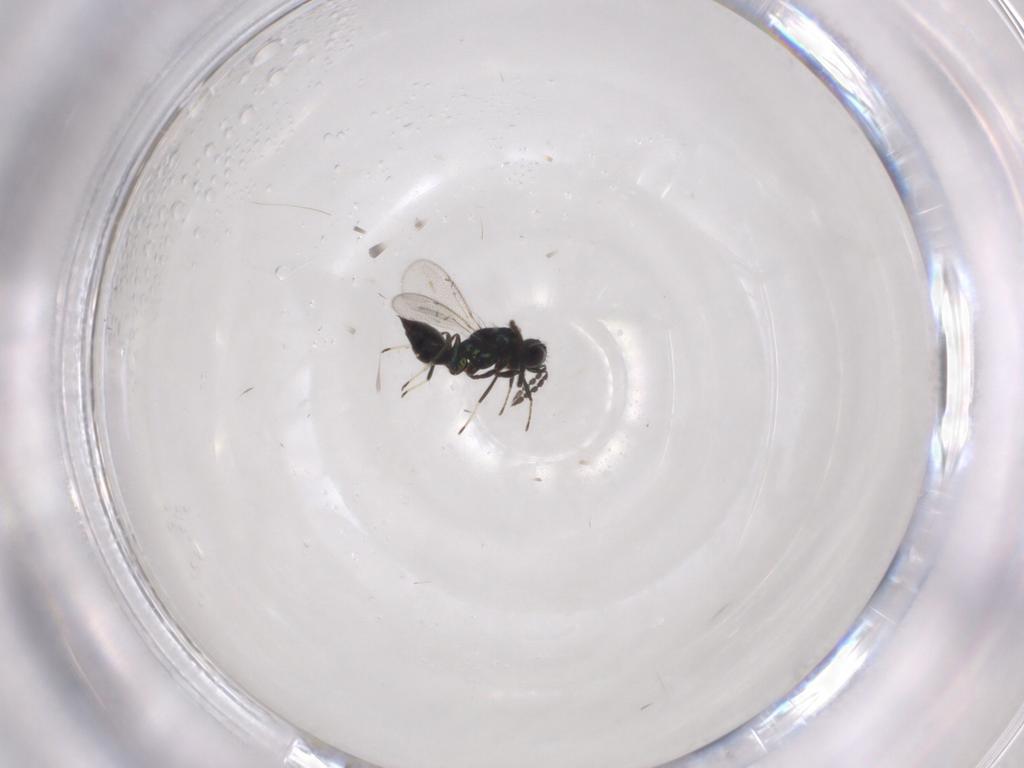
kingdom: Animalia
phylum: Arthropoda
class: Insecta
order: Hymenoptera
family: Eulophidae
